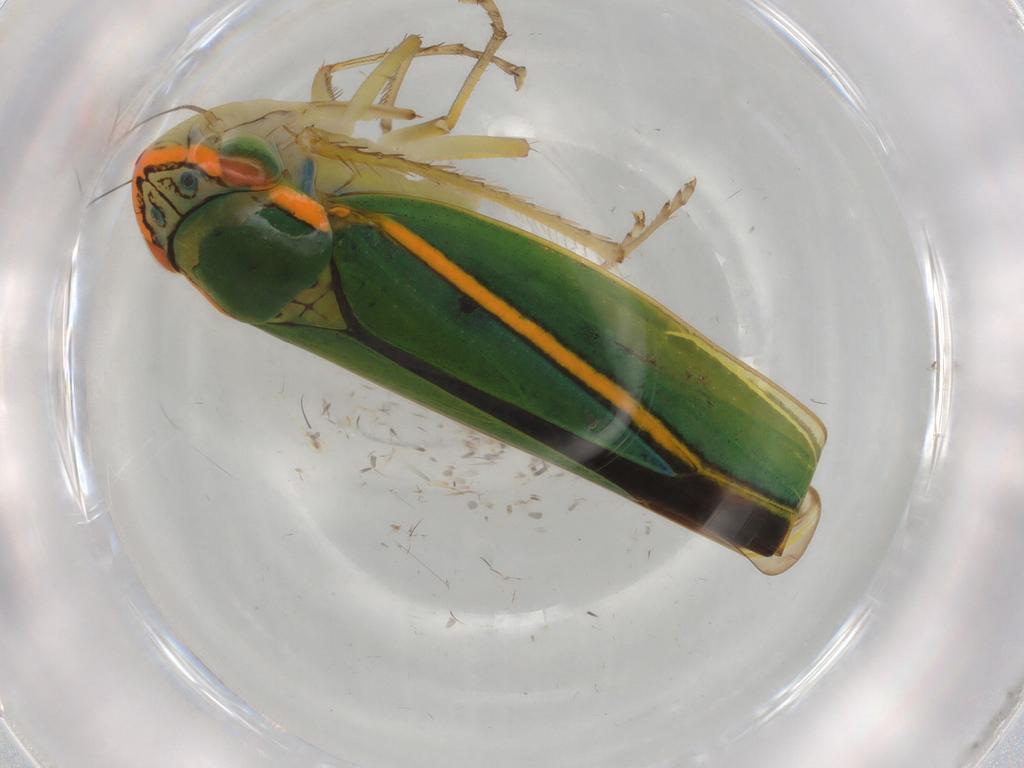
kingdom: Animalia
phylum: Arthropoda
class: Insecta
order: Hemiptera
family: Cicadellidae
